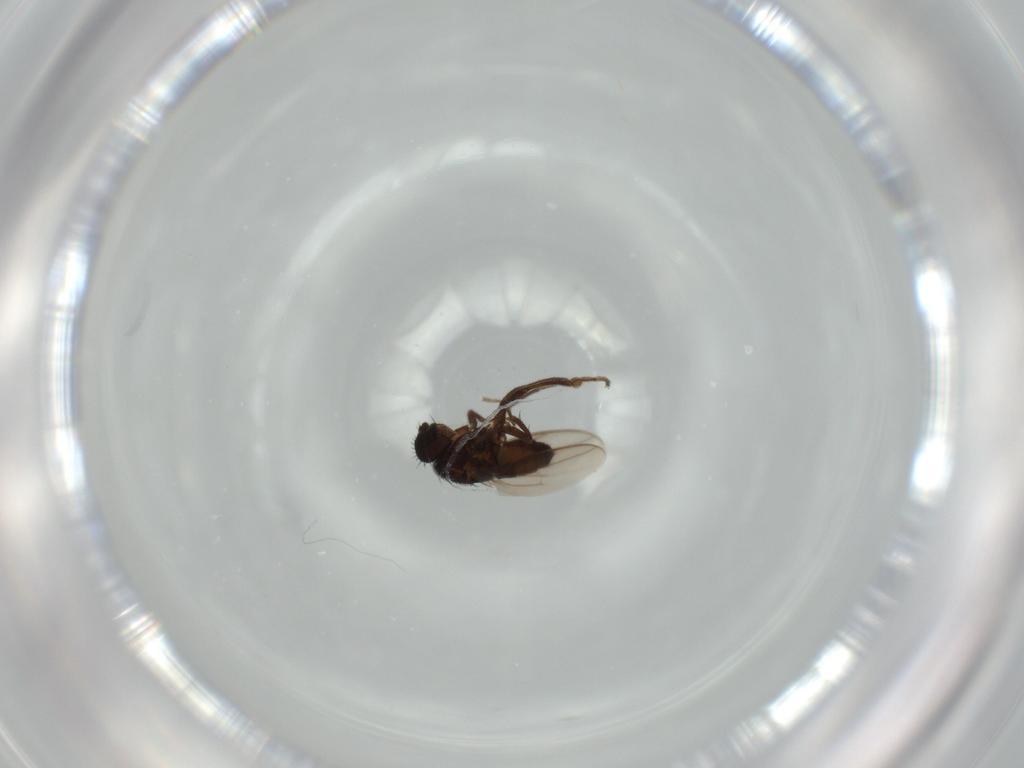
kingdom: Animalia
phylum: Arthropoda
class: Insecta
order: Diptera
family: Sphaeroceridae
